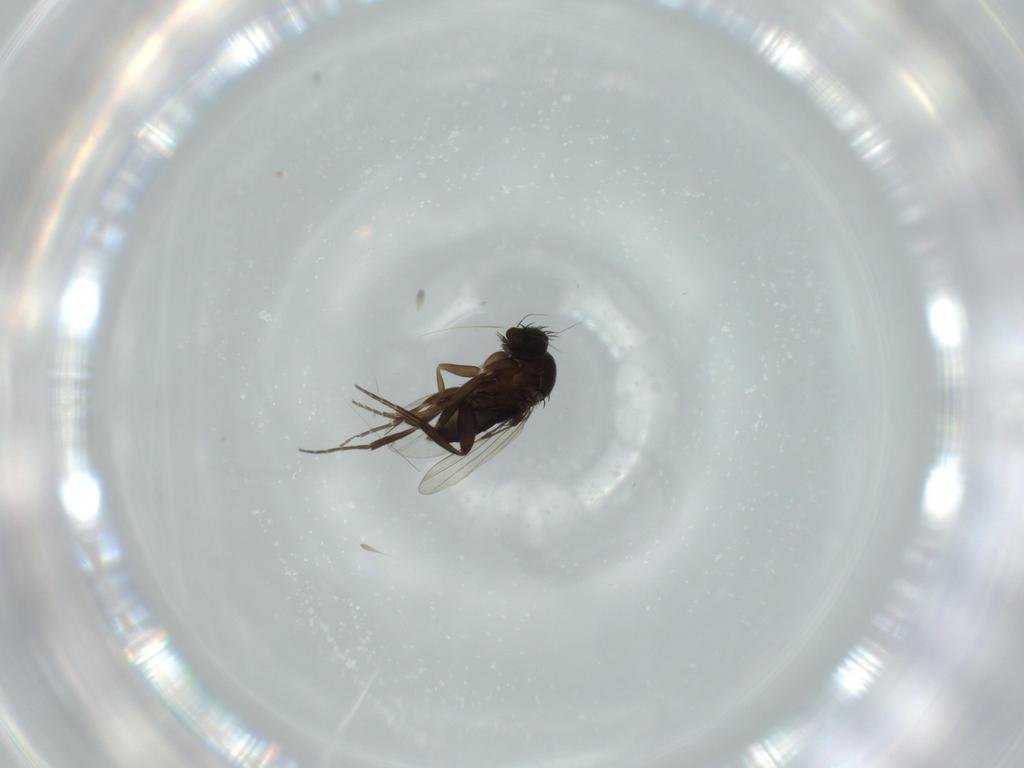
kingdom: Animalia
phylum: Arthropoda
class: Insecta
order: Diptera
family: Phoridae
